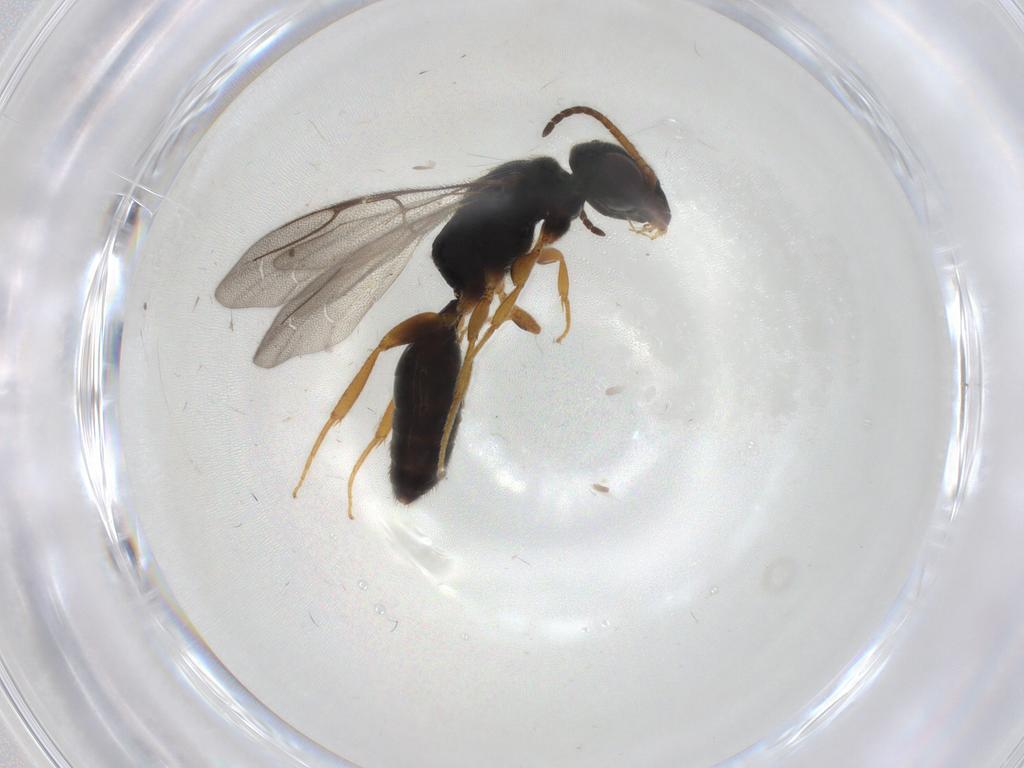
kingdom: Animalia
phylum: Arthropoda
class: Insecta
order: Hymenoptera
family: Bethylidae
